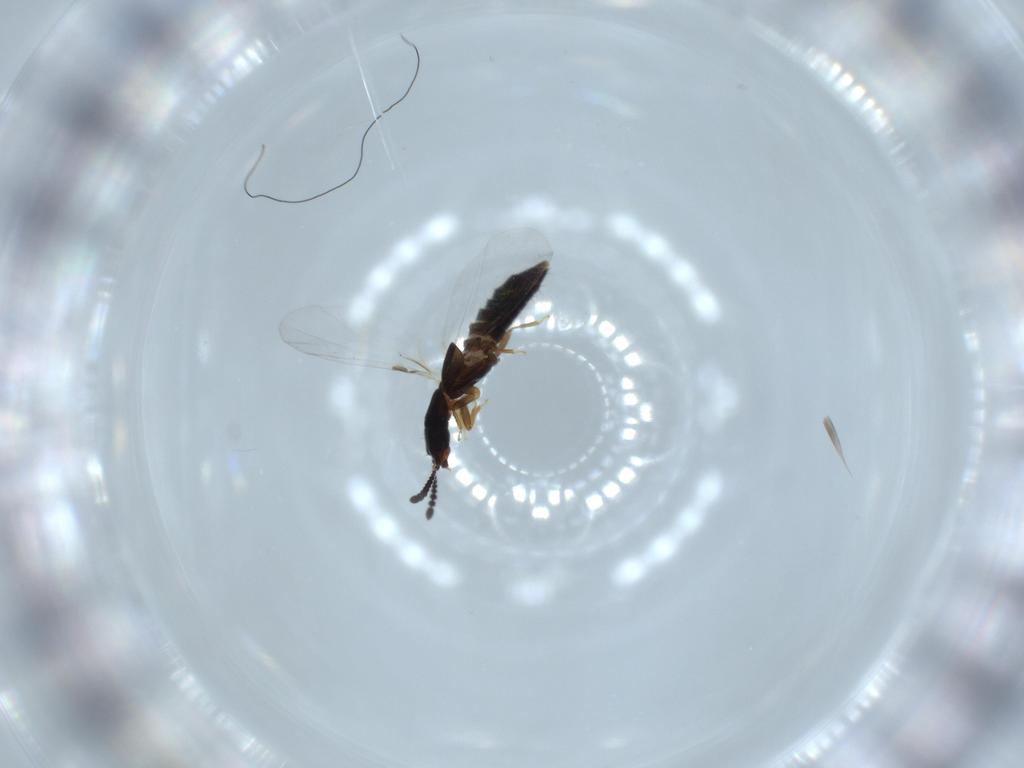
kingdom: Animalia
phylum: Arthropoda
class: Insecta
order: Coleoptera
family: Staphylinidae
